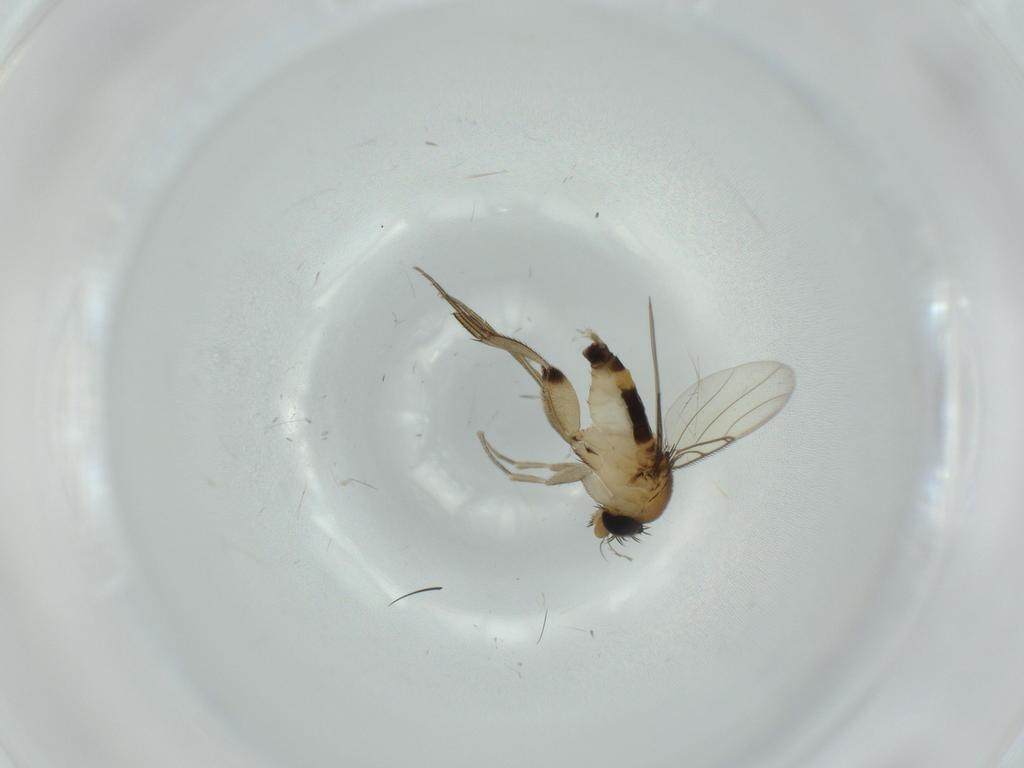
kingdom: Animalia
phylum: Arthropoda
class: Insecta
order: Diptera
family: Phoridae
